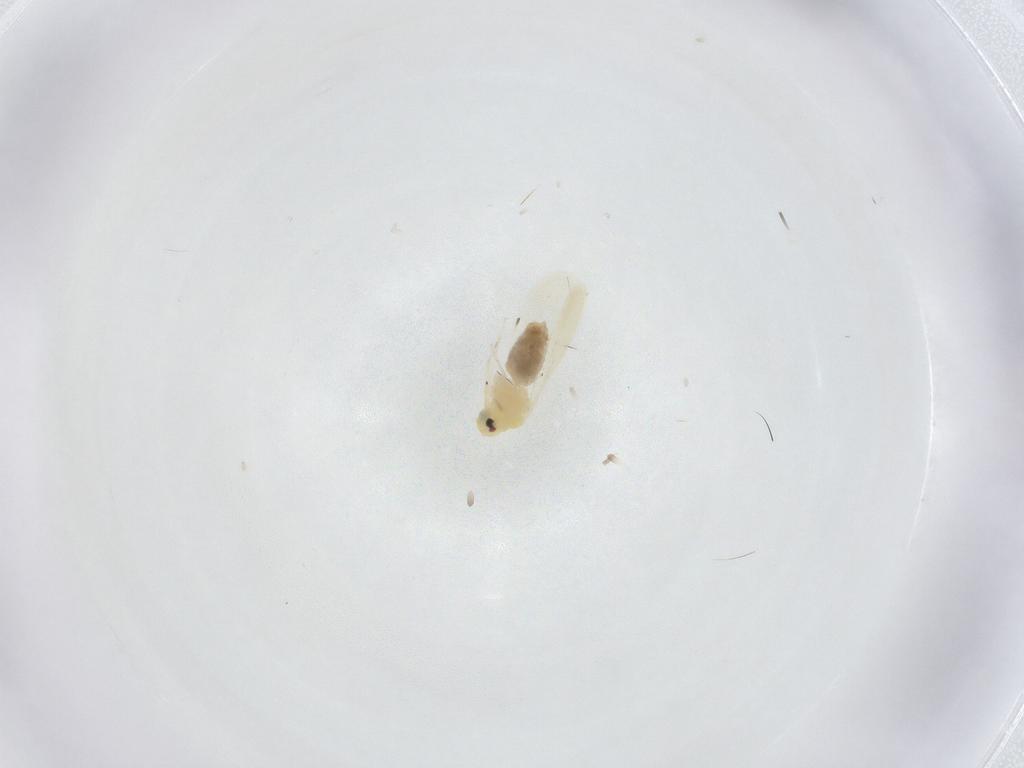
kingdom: Animalia
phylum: Arthropoda
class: Insecta
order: Hemiptera
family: Aleyrodidae
